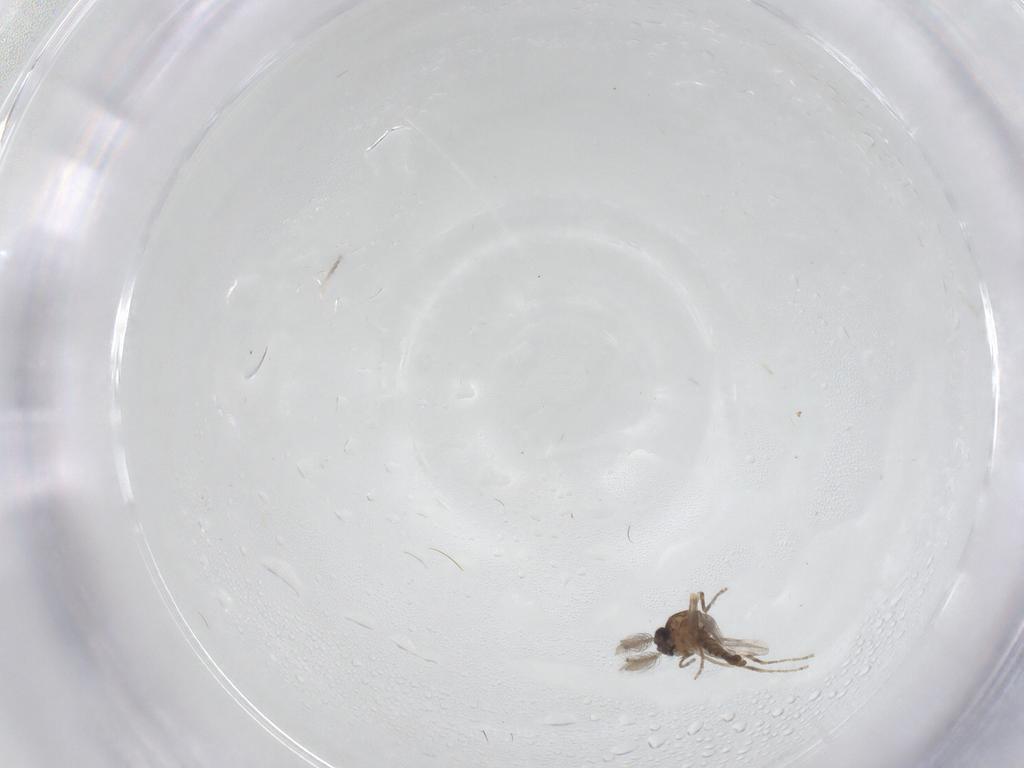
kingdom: Animalia
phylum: Arthropoda
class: Insecta
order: Diptera
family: Ceratopogonidae
